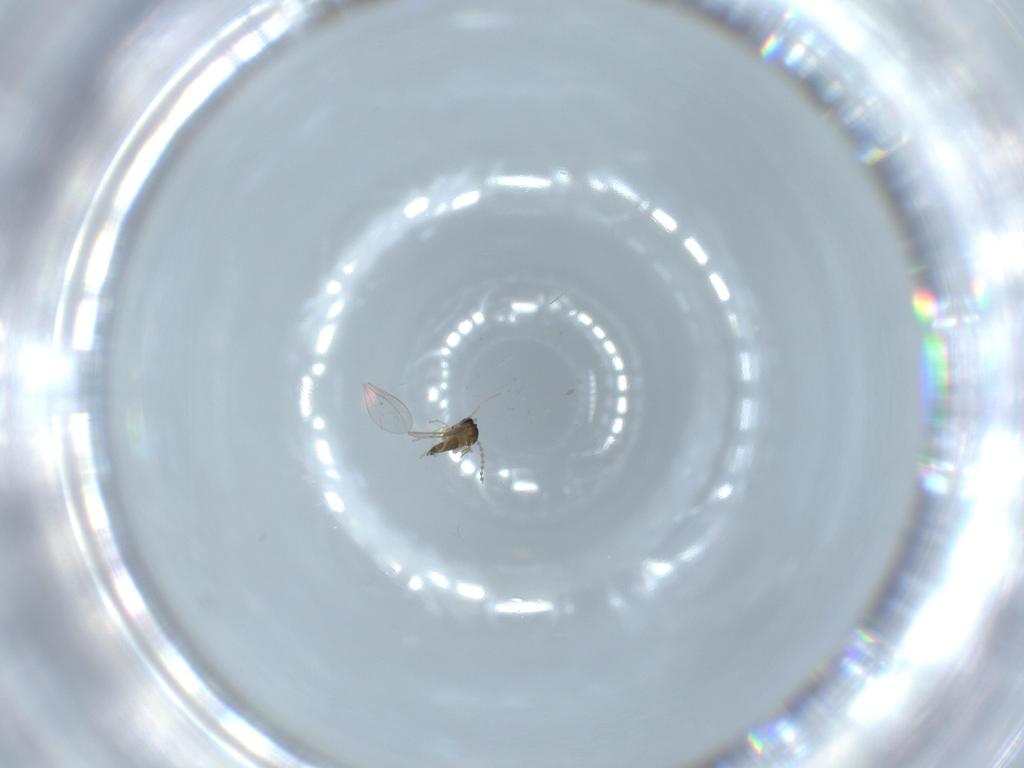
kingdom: Animalia
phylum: Arthropoda
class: Insecta
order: Diptera
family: Cecidomyiidae
